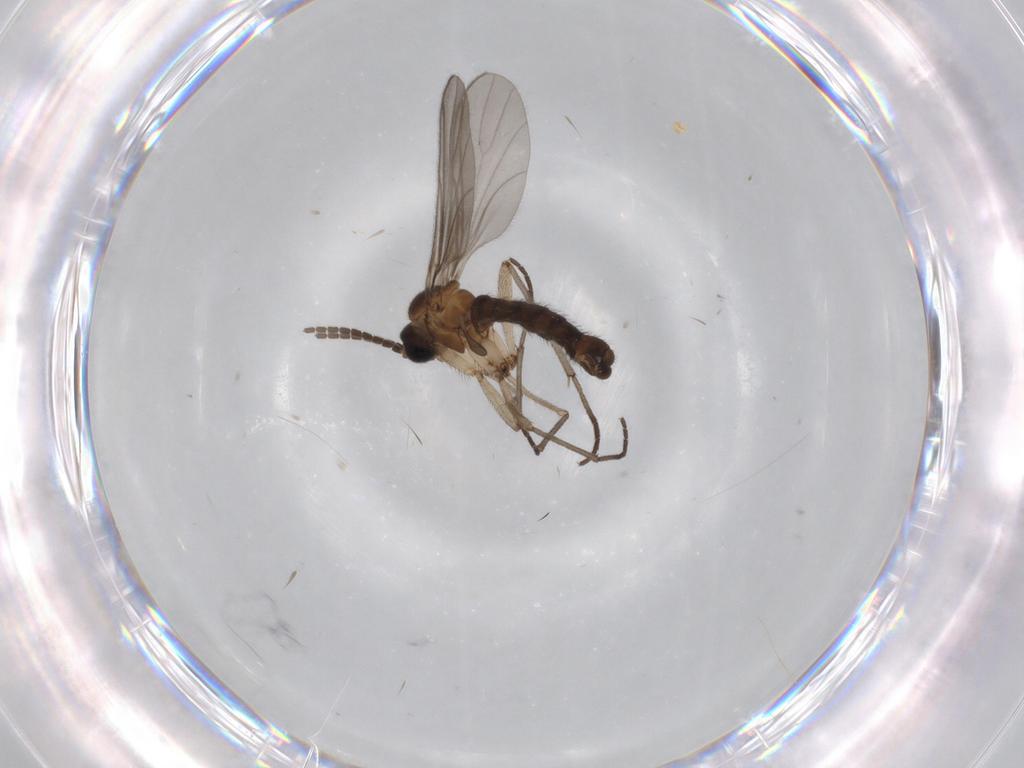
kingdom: Animalia
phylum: Arthropoda
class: Insecta
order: Diptera
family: Sciaridae
